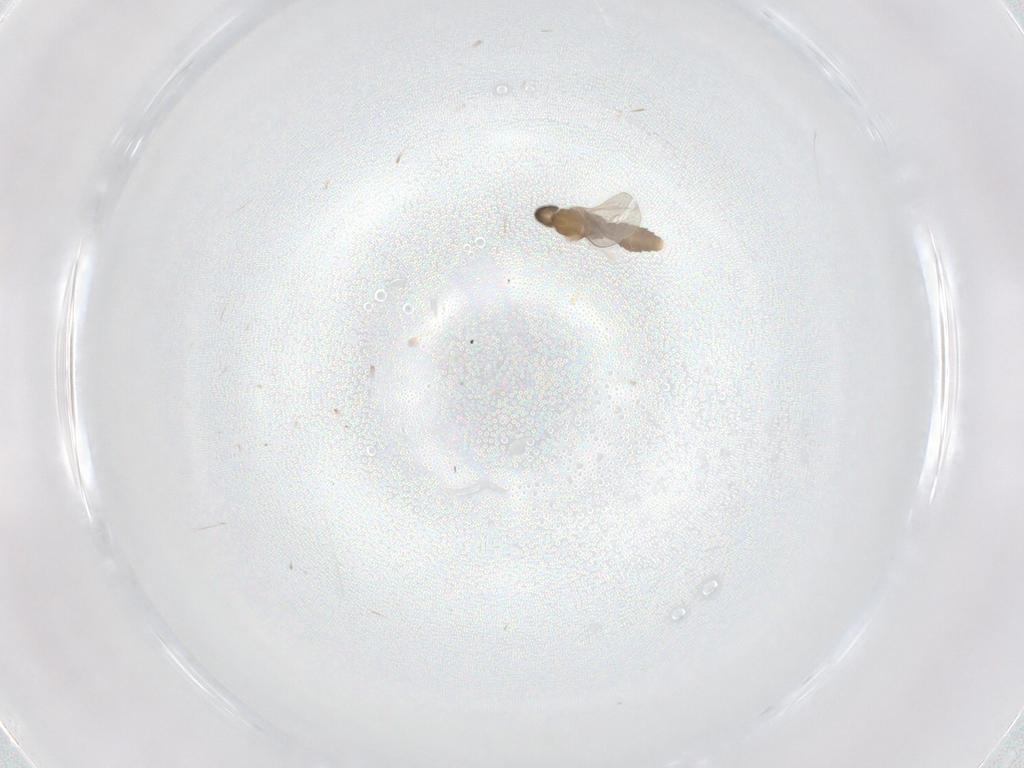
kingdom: Animalia
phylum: Arthropoda
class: Insecta
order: Diptera
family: Cecidomyiidae
